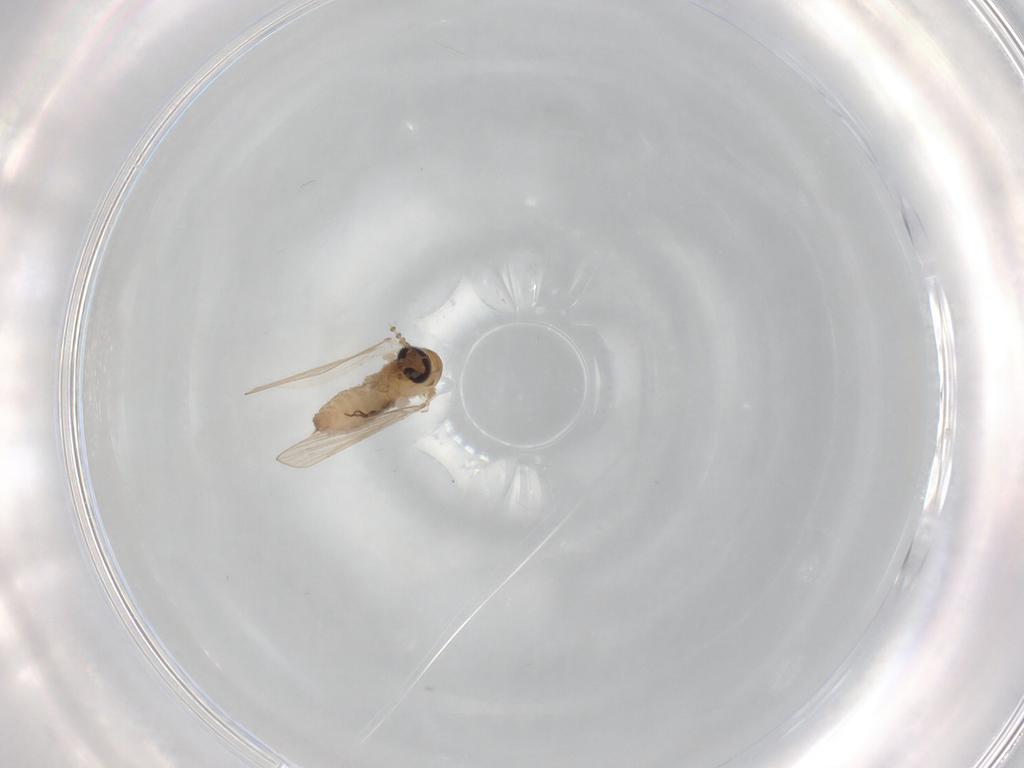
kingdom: Animalia
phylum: Arthropoda
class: Insecta
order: Diptera
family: Psychodidae
